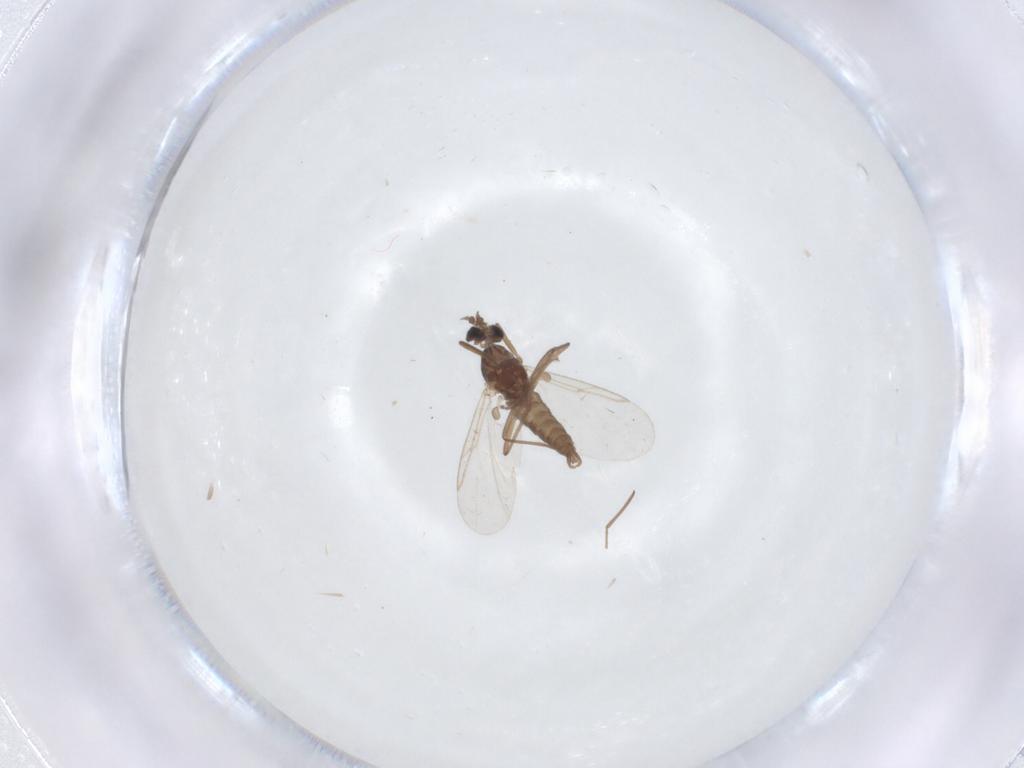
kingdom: Animalia
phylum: Arthropoda
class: Insecta
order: Diptera
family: Cecidomyiidae
